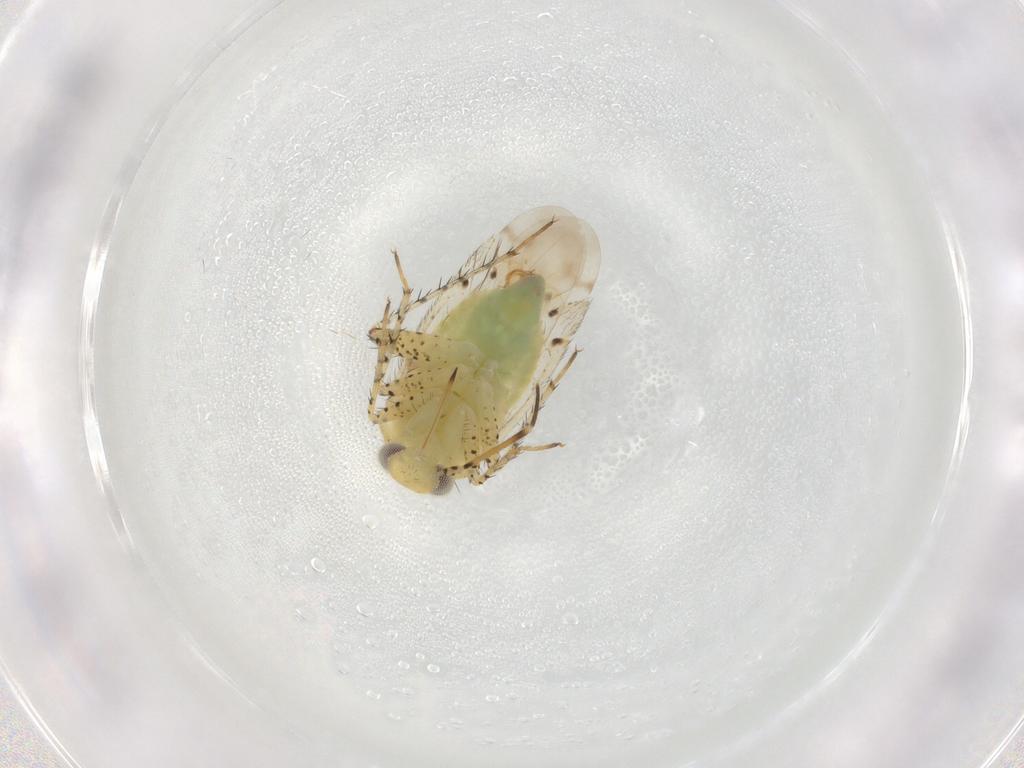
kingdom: Animalia
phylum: Arthropoda
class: Insecta
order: Hemiptera
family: Miridae
